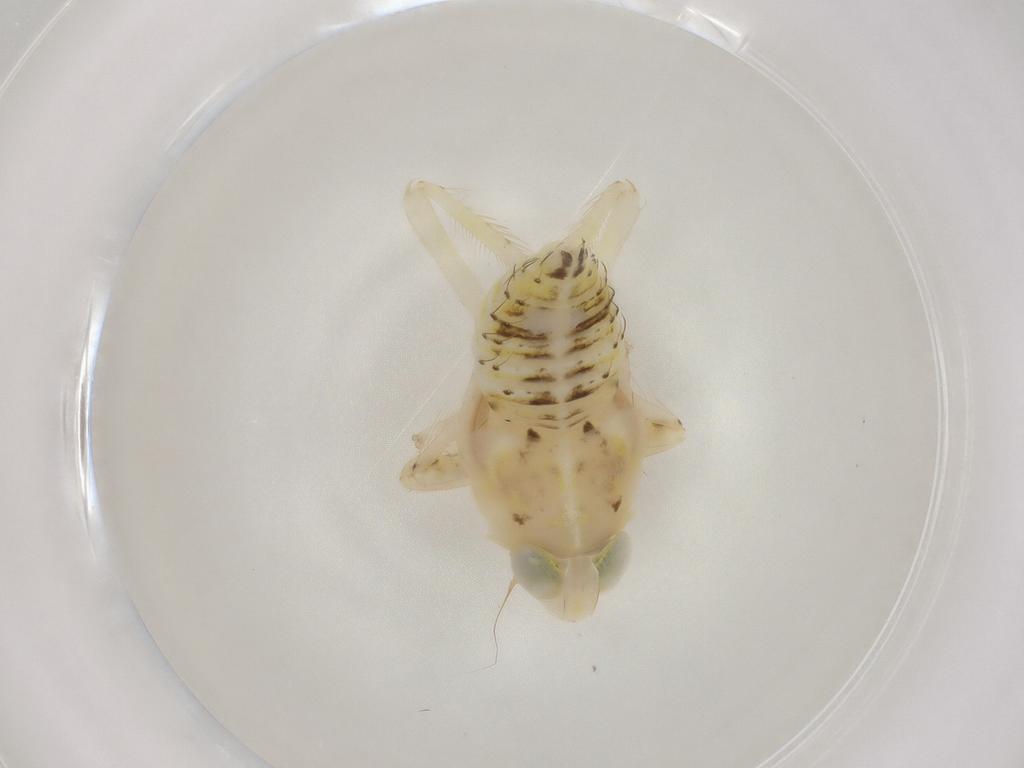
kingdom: Animalia
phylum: Arthropoda
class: Insecta
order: Hemiptera
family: Cicadellidae
